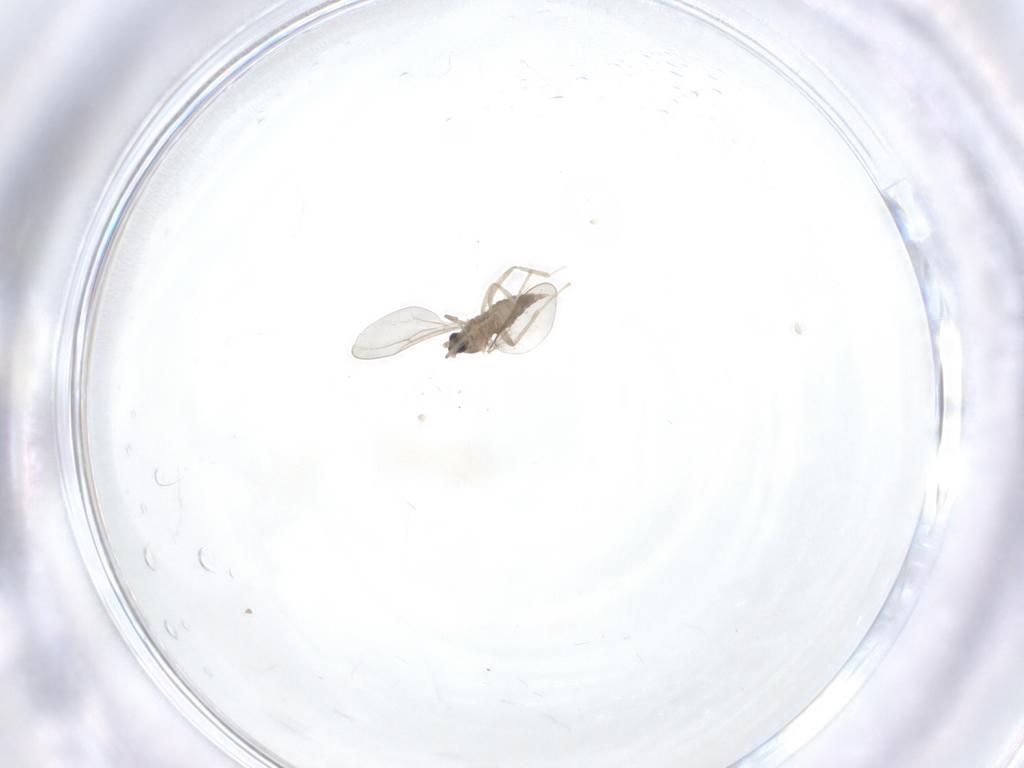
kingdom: Animalia
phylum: Arthropoda
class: Insecta
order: Diptera
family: Cecidomyiidae
